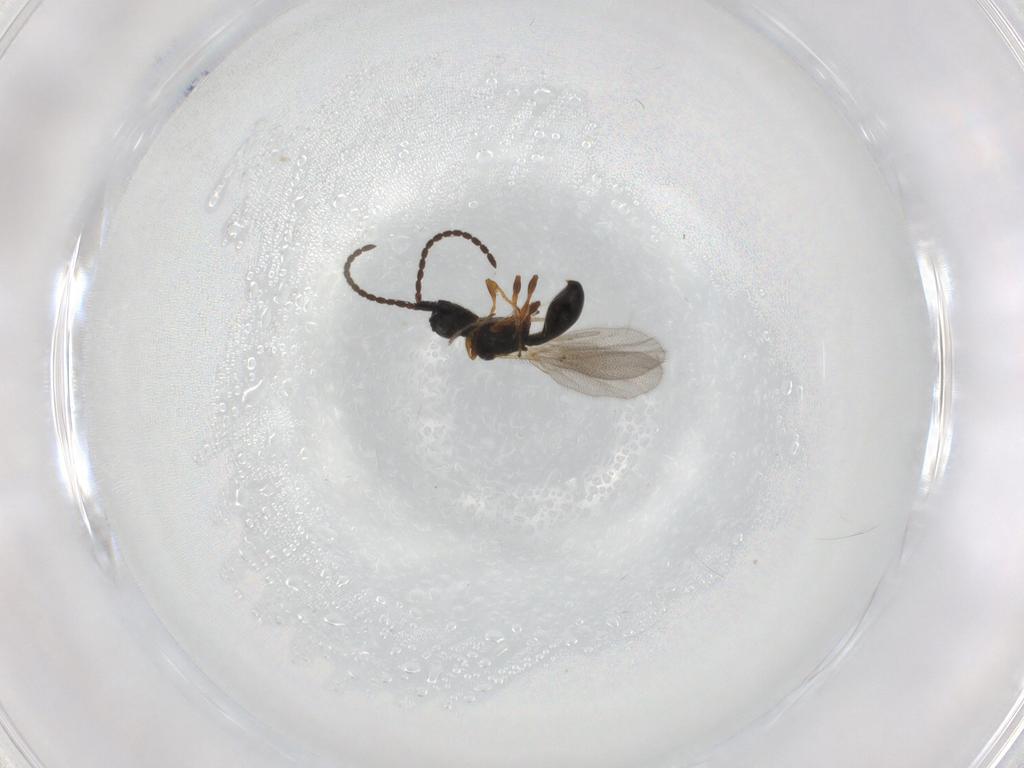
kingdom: Animalia
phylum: Arthropoda
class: Insecta
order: Hymenoptera
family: Diapriidae
